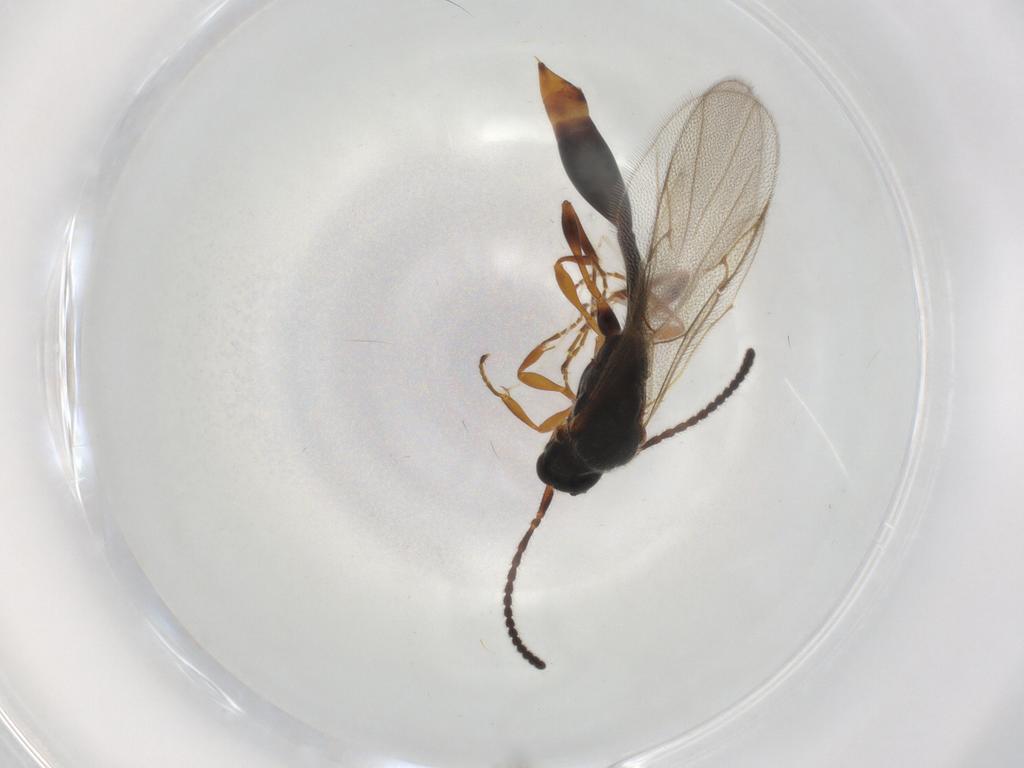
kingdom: Animalia
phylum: Arthropoda
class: Insecta
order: Hymenoptera
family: Diapriidae
